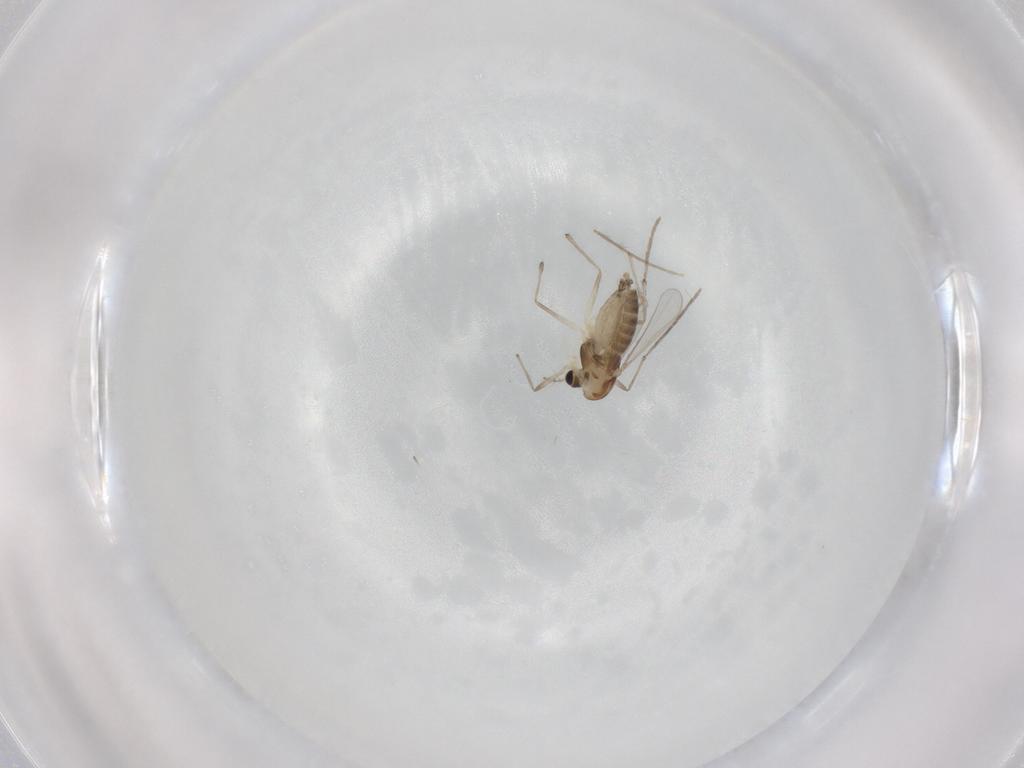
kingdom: Animalia
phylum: Arthropoda
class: Insecta
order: Diptera
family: Chironomidae
